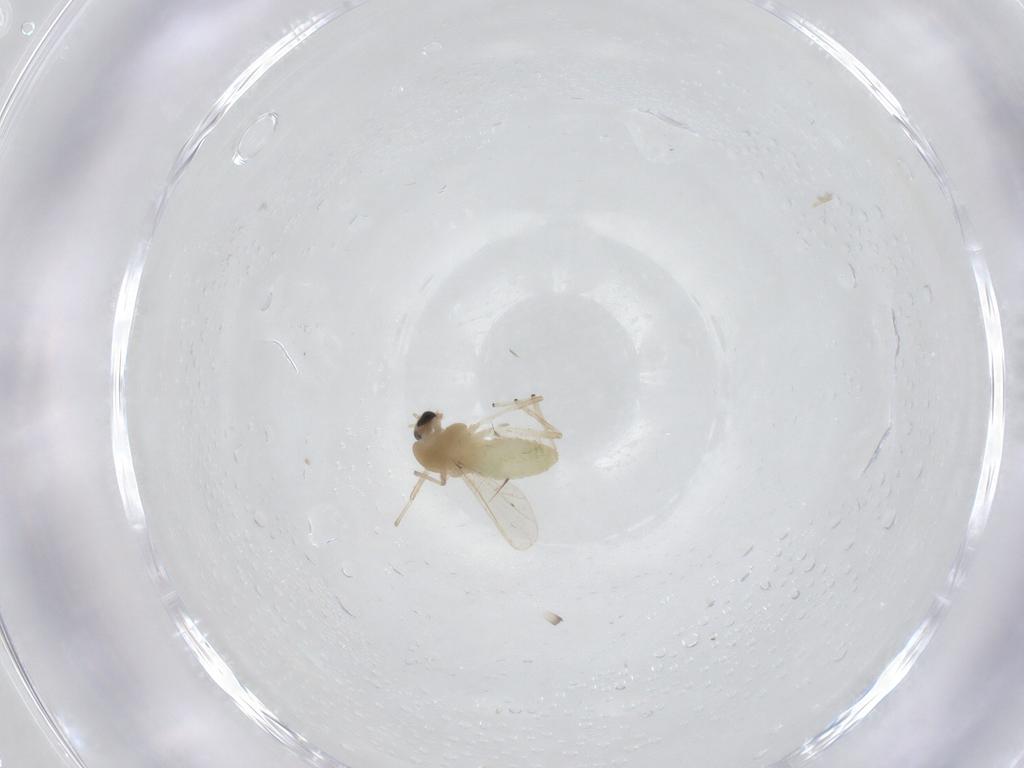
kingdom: Animalia
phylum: Arthropoda
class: Insecta
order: Diptera
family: Chironomidae
